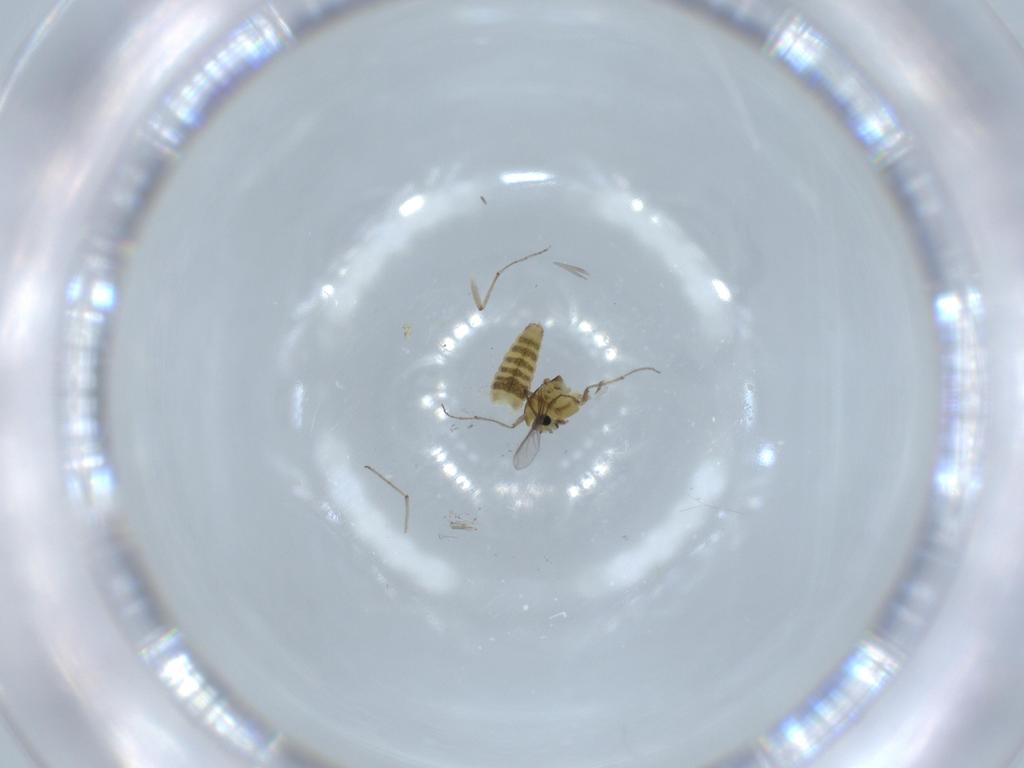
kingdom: Animalia
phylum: Arthropoda
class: Insecta
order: Diptera
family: Chironomidae
